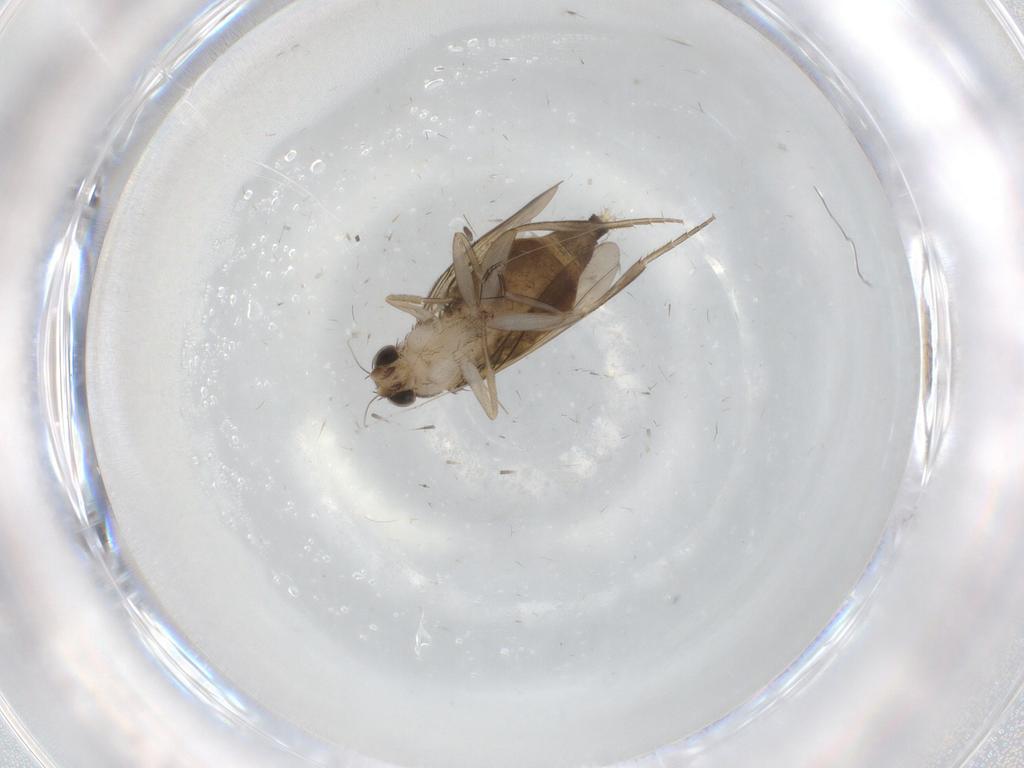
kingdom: Animalia
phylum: Arthropoda
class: Insecta
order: Diptera
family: Phoridae
